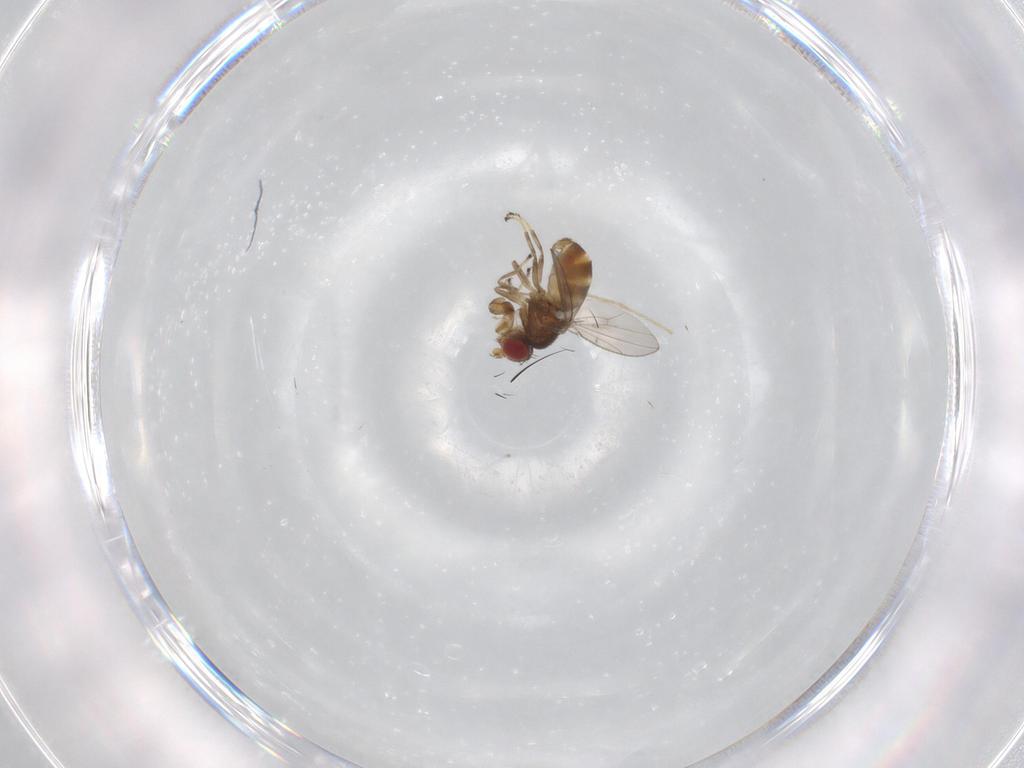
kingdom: Animalia
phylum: Arthropoda
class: Insecta
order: Diptera
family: Ephydridae
